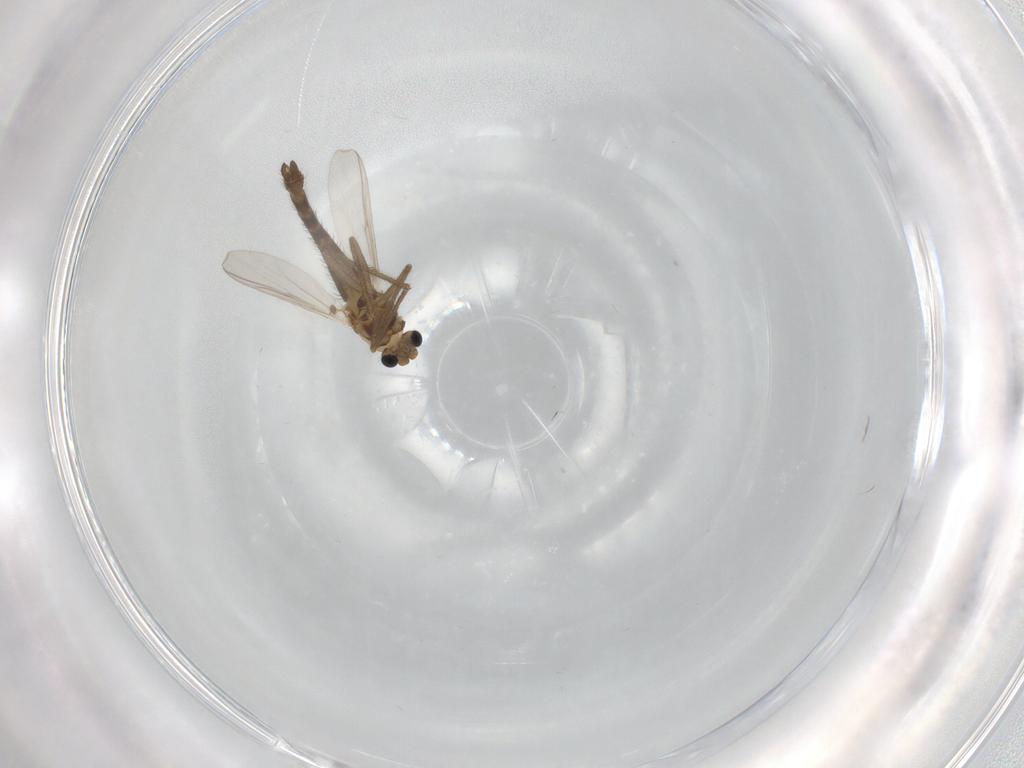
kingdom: Animalia
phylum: Arthropoda
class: Insecta
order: Diptera
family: Chironomidae
